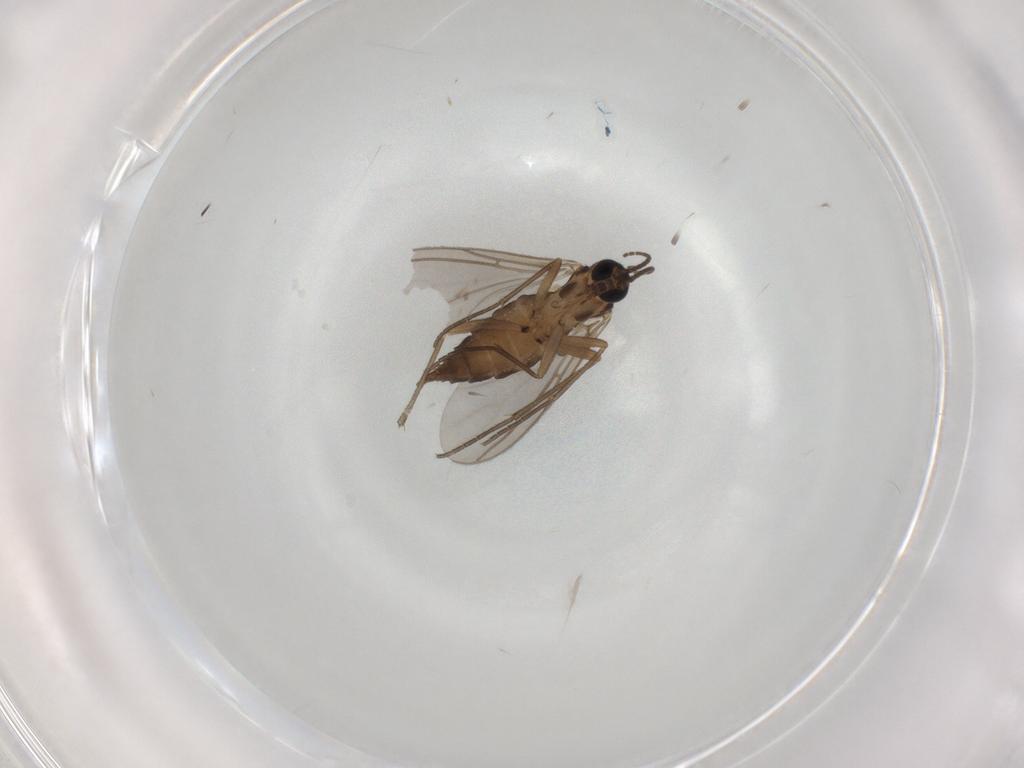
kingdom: Animalia
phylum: Arthropoda
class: Insecta
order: Diptera
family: Sciaridae
